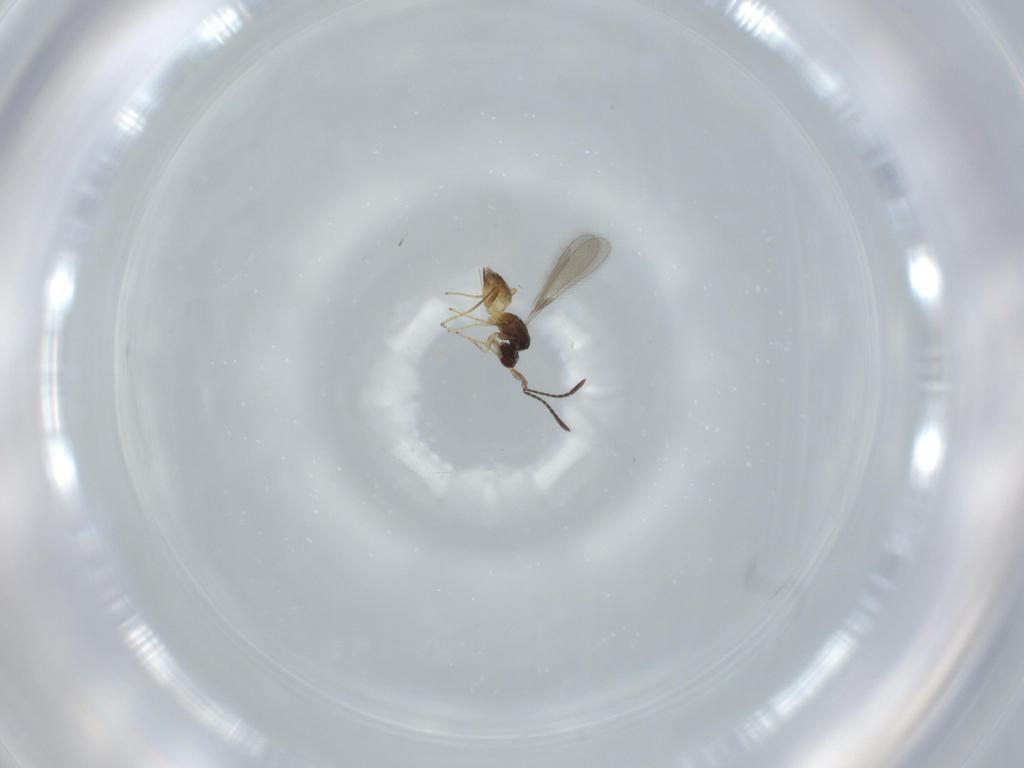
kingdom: Animalia
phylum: Arthropoda
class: Insecta
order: Hymenoptera
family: Mymaridae
